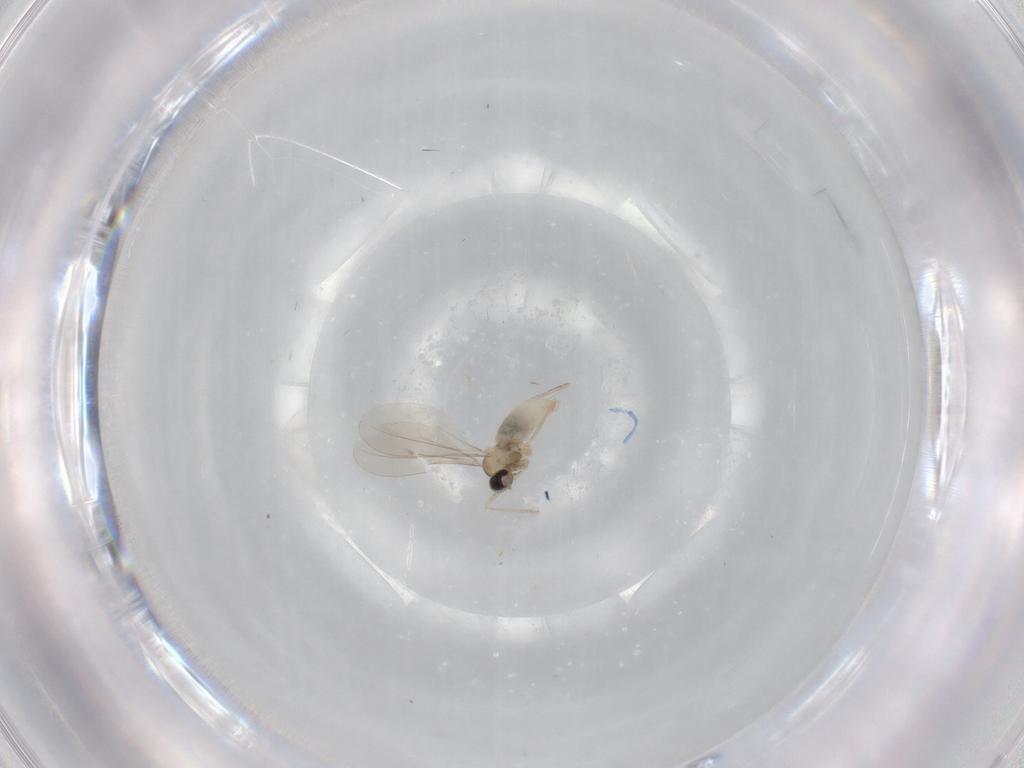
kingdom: Animalia
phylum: Arthropoda
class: Insecta
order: Diptera
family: Cecidomyiidae
